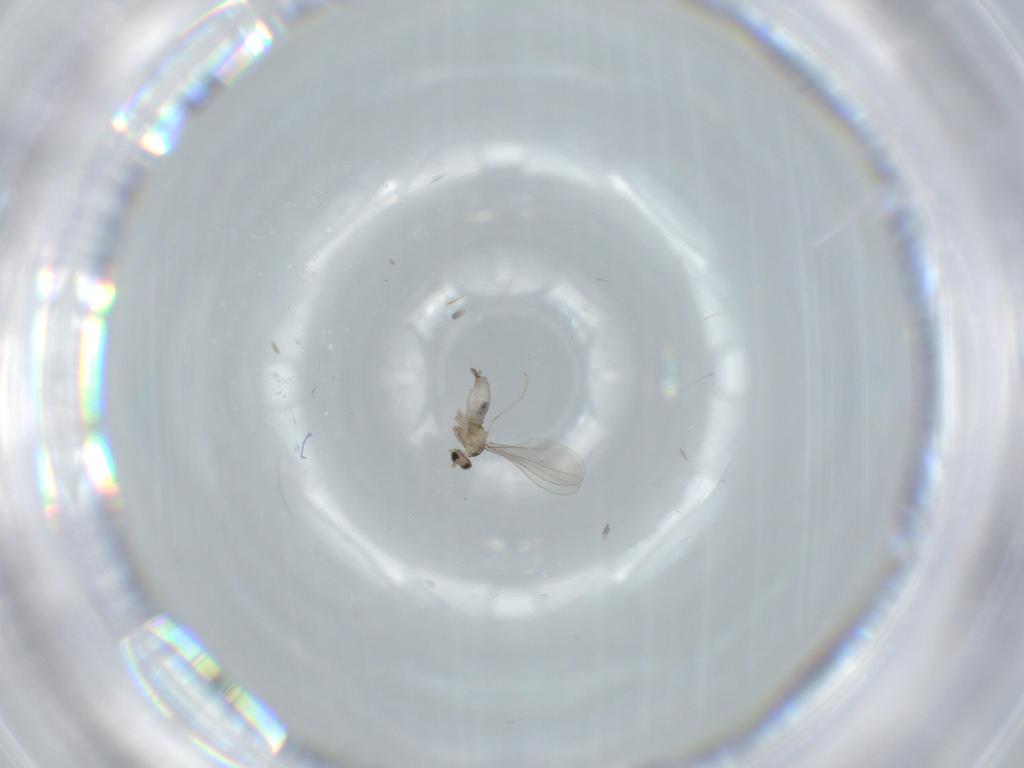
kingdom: Animalia
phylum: Arthropoda
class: Insecta
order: Diptera
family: Cecidomyiidae
